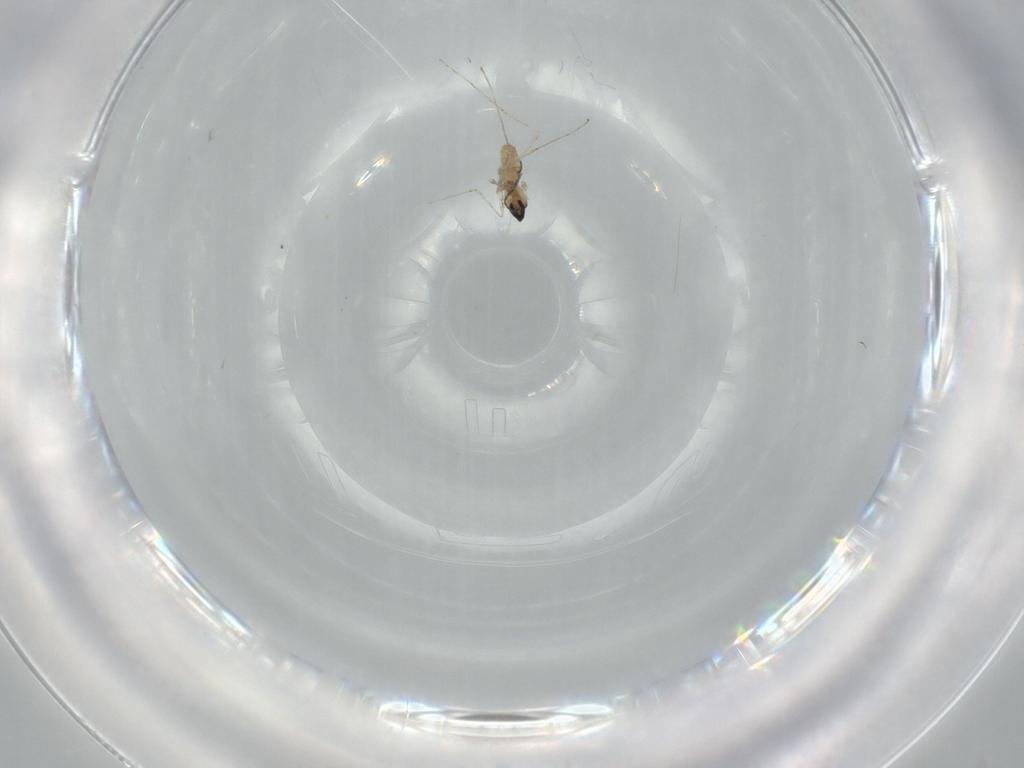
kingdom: Animalia
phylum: Arthropoda
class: Insecta
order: Diptera
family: Cecidomyiidae
